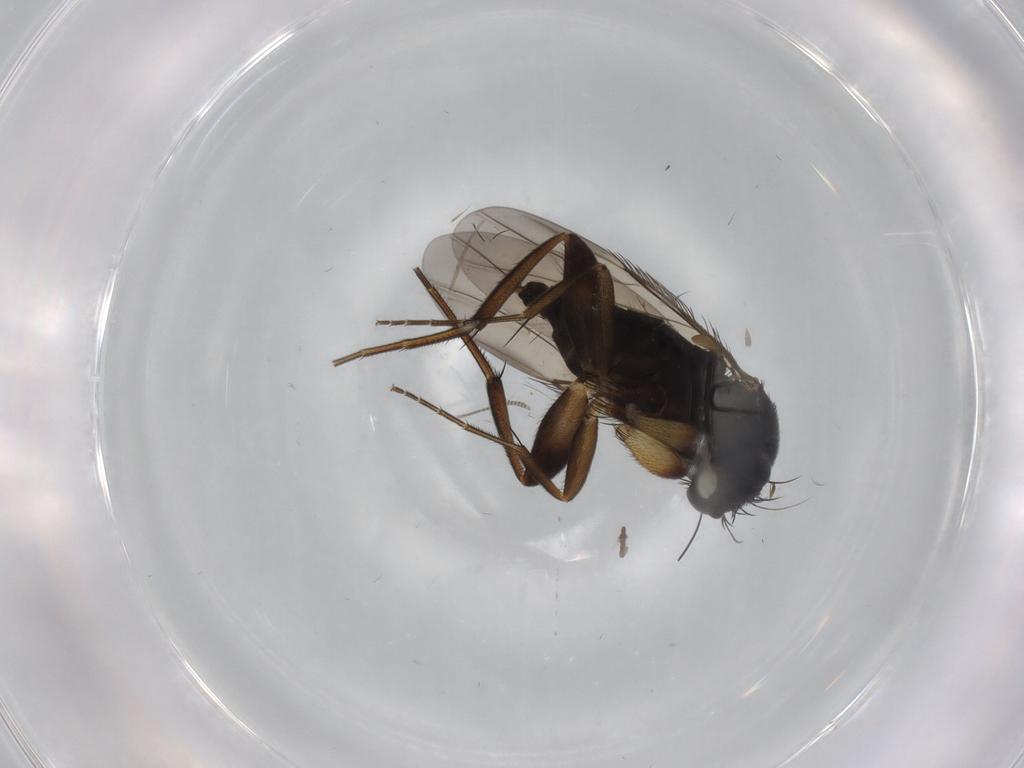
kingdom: Animalia
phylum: Arthropoda
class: Insecta
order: Diptera
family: Phoridae
